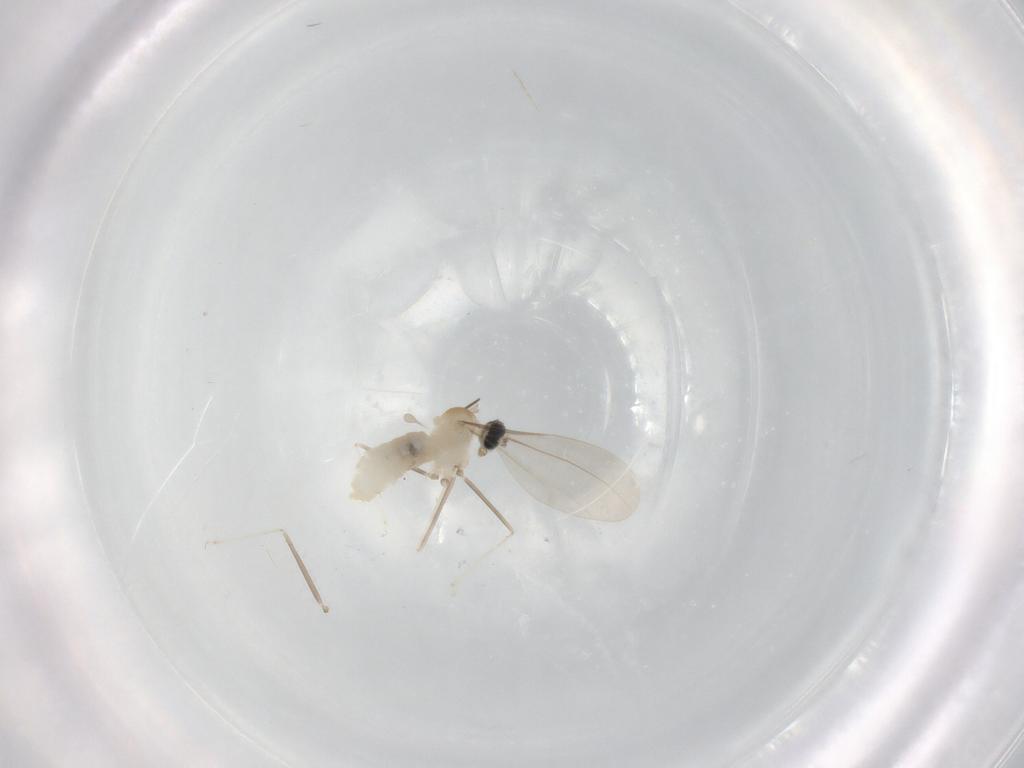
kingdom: Animalia
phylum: Arthropoda
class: Insecta
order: Diptera
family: Cecidomyiidae
